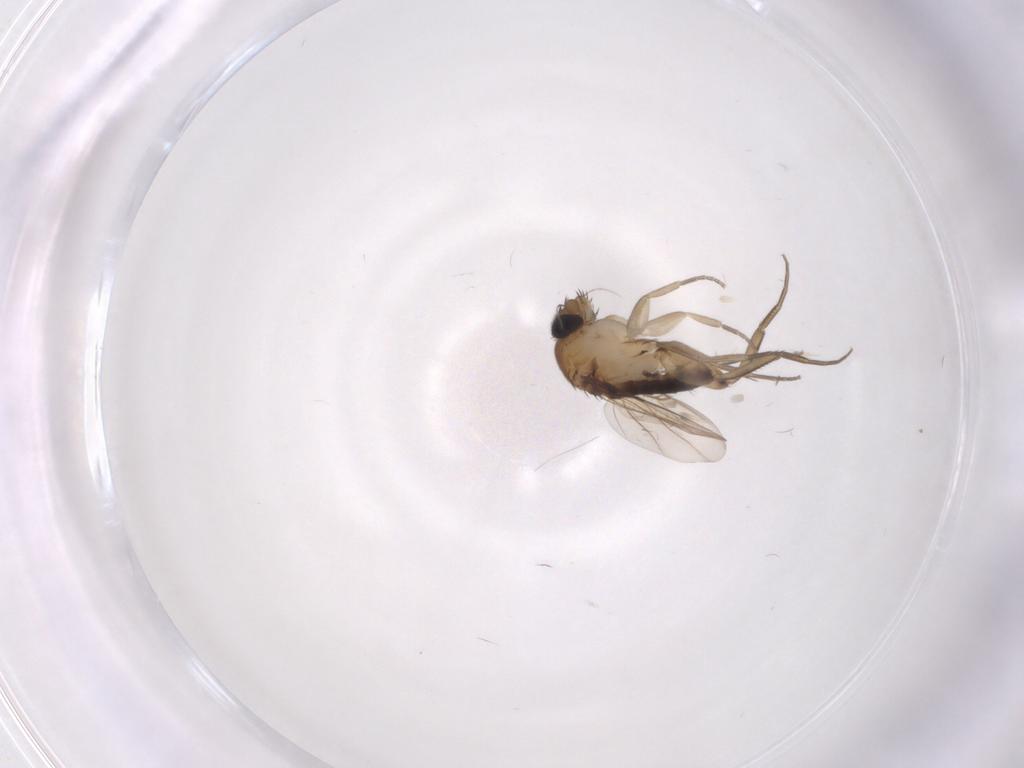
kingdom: Animalia
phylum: Arthropoda
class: Insecta
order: Diptera
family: Phoridae
